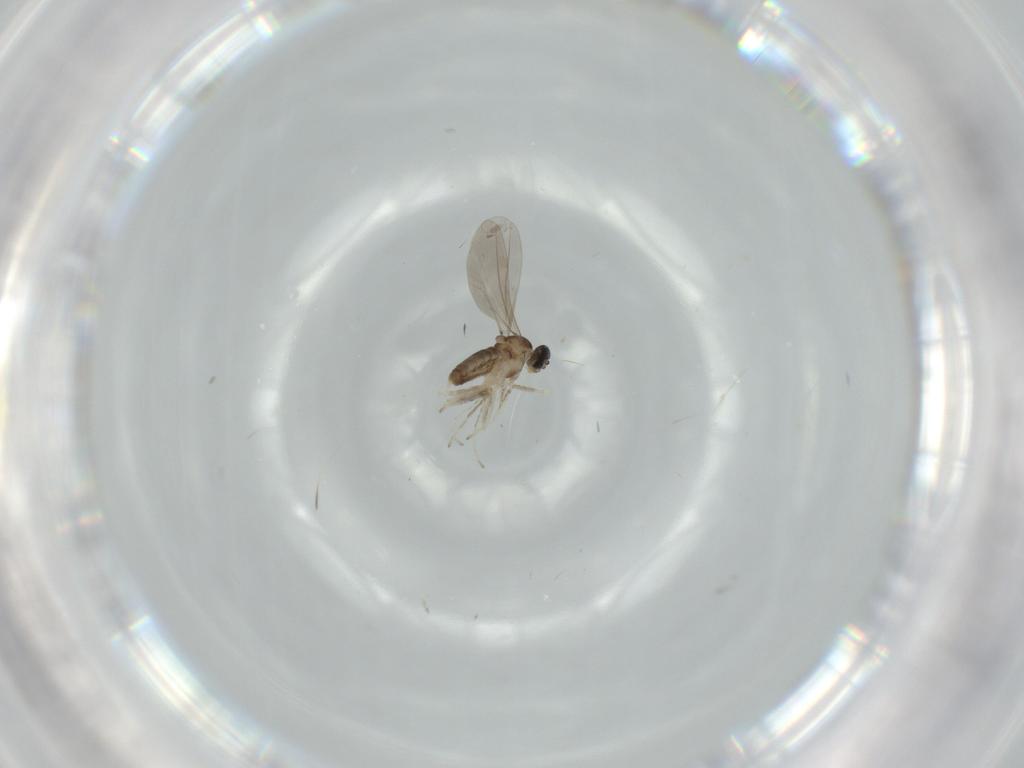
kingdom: Animalia
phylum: Arthropoda
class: Insecta
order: Diptera
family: Cecidomyiidae
